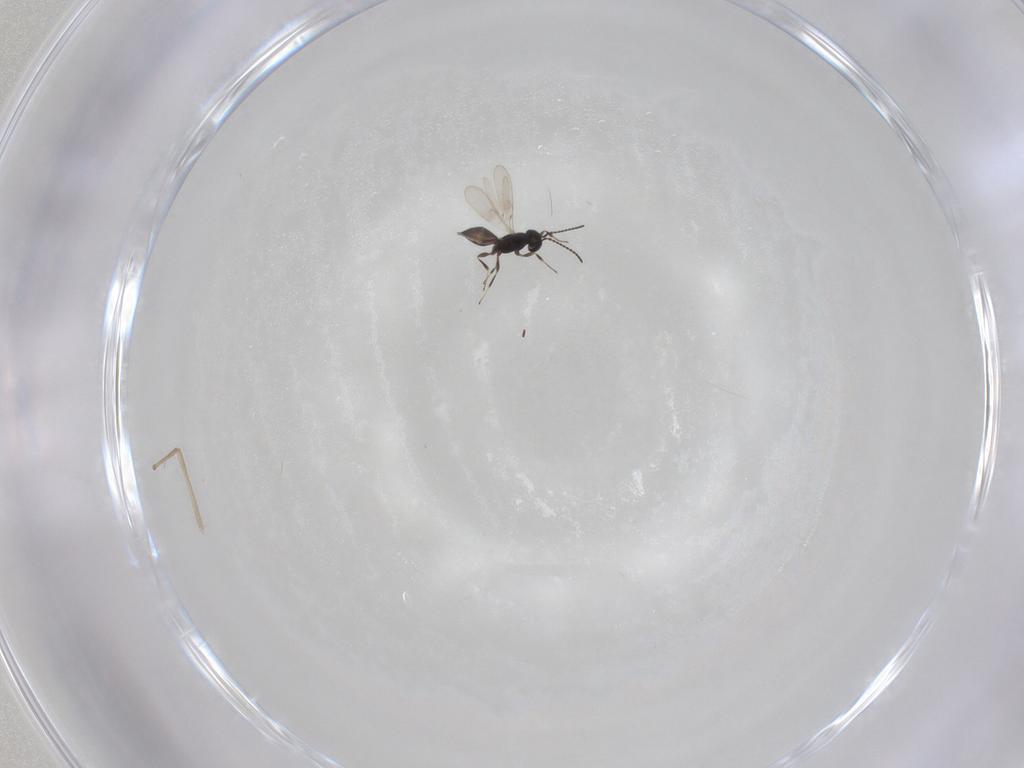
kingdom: Animalia
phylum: Arthropoda
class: Insecta
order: Hymenoptera
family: Scelionidae
